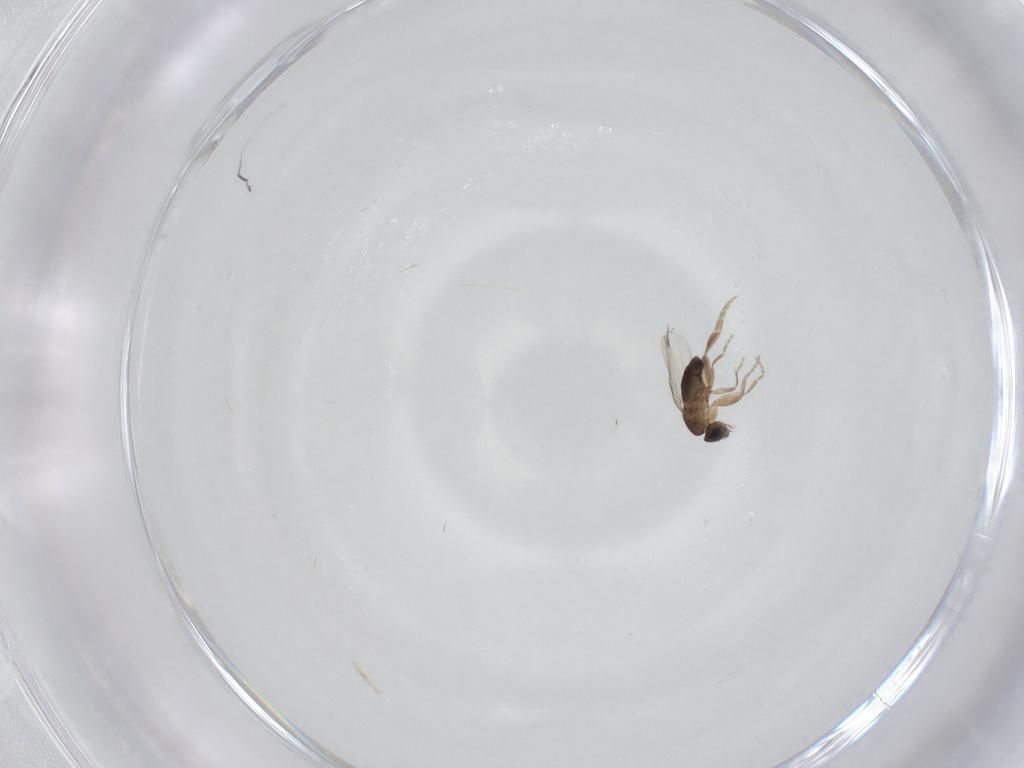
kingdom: Animalia
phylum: Arthropoda
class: Insecta
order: Diptera
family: Phoridae
